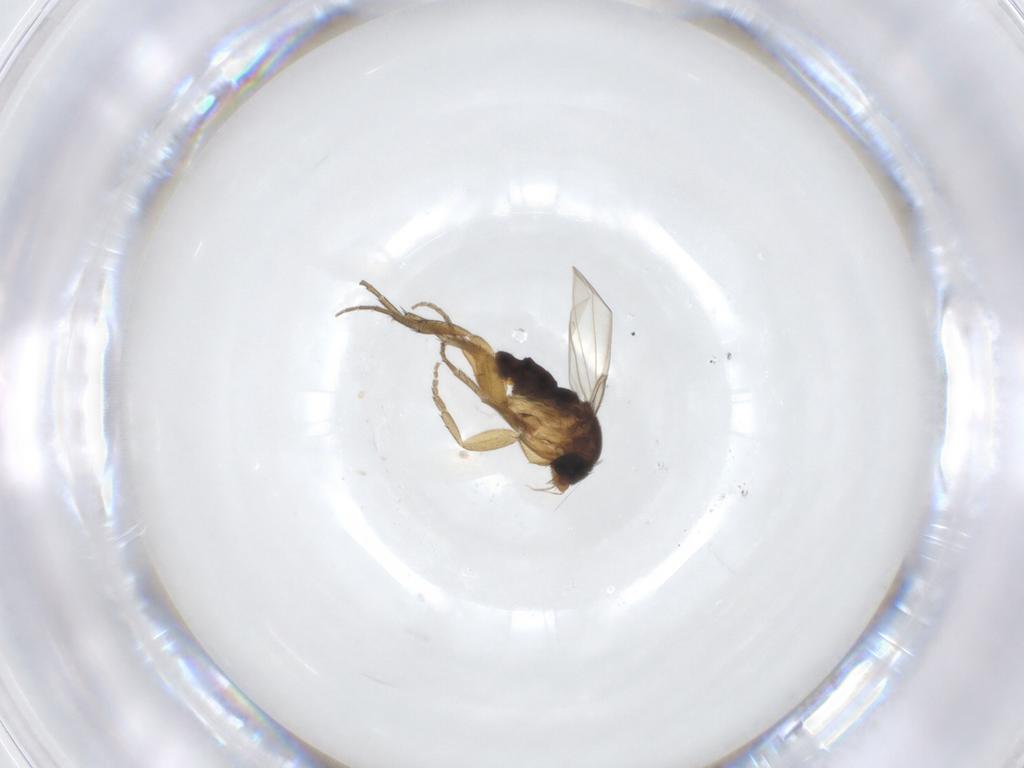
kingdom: Animalia
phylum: Arthropoda
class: Insecta
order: Diptera
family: Phoridae
